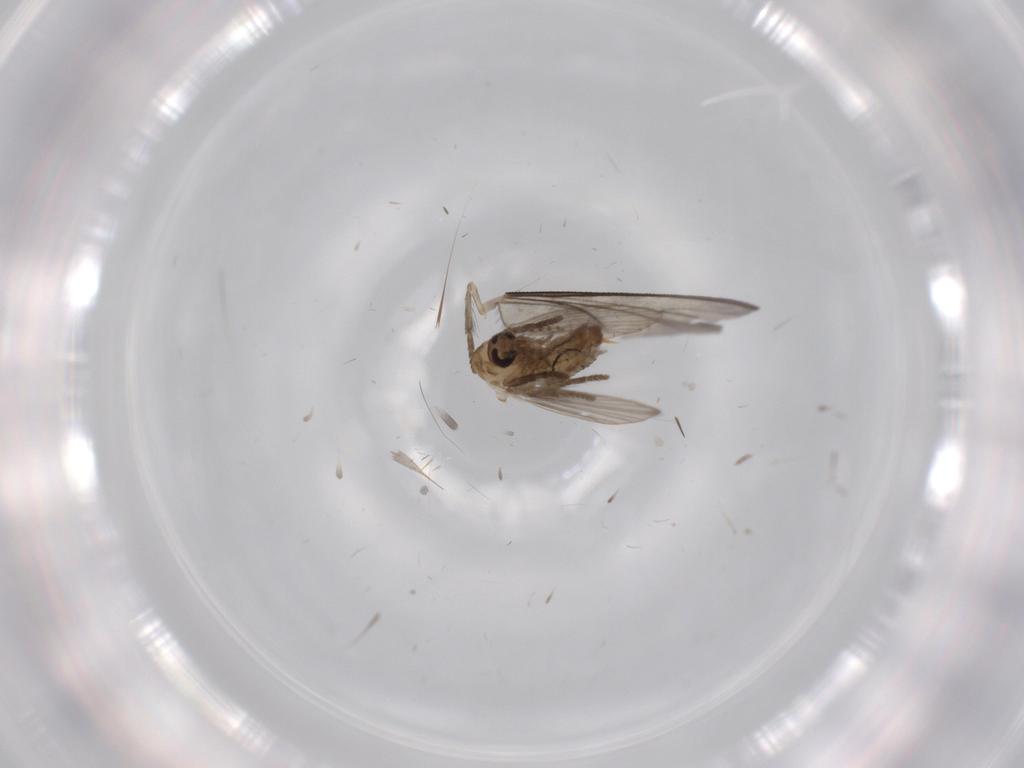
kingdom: Animalia
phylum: Arthropoda
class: Insecta
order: Diptera
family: Psychodidae
